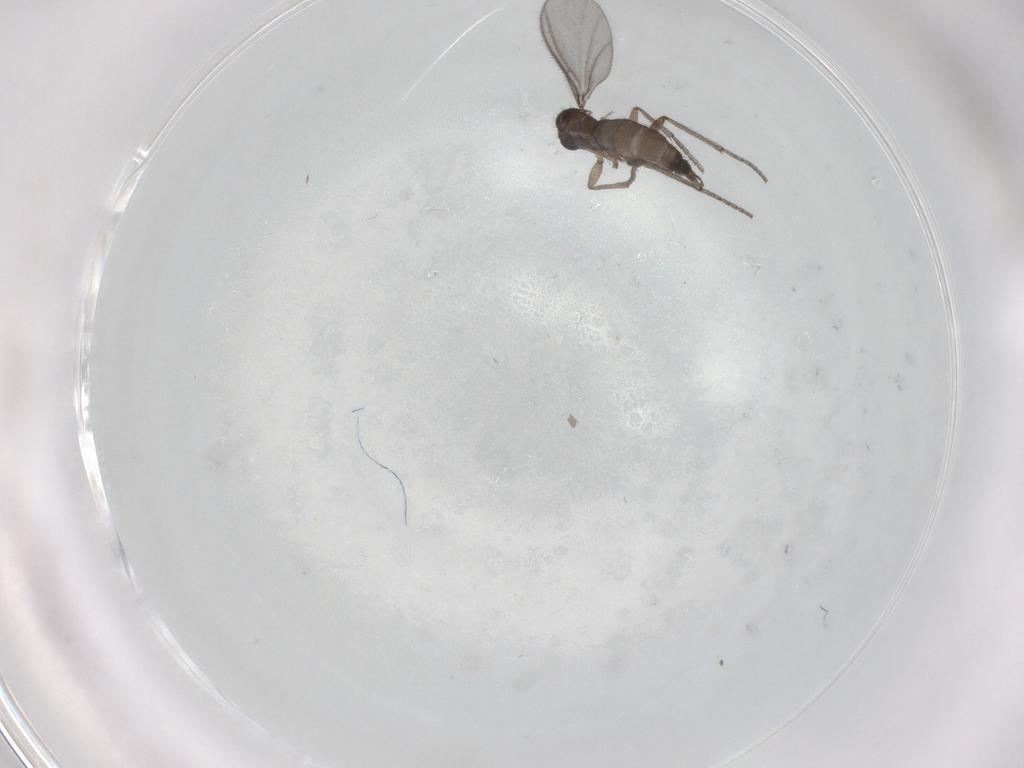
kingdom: Animalia
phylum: Arthropoda
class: Insecta
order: Diptera
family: Sciaridae
